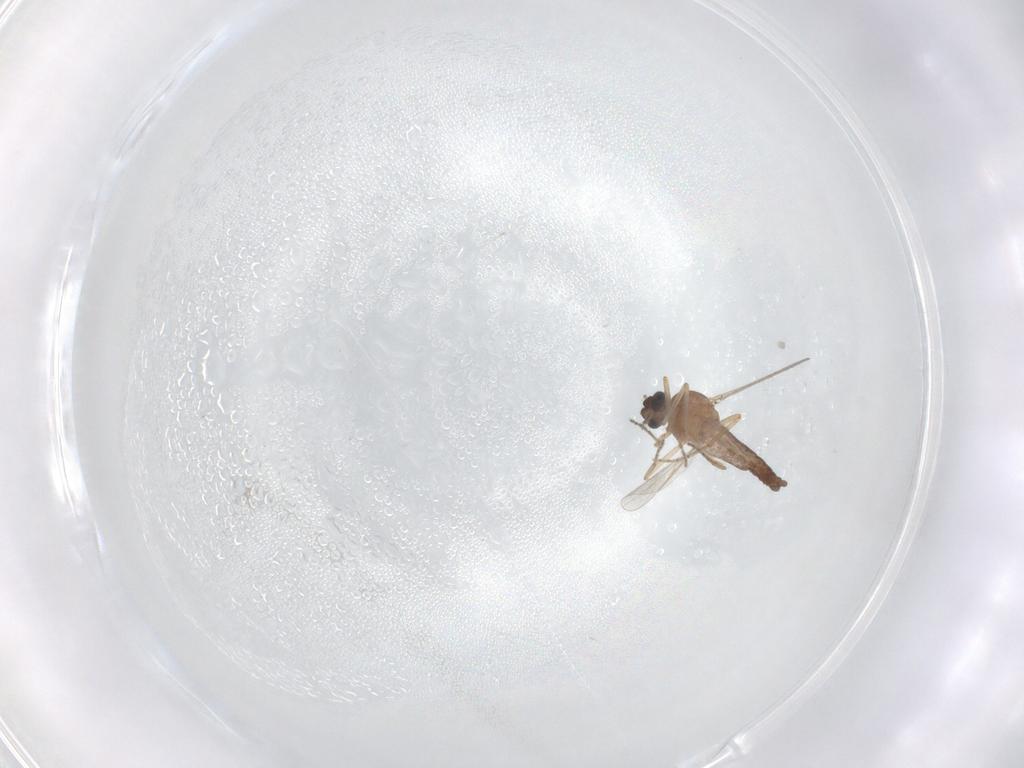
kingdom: Animalia
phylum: Arthropoda
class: Insecta
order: Diptera
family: Ceratopogonidae
